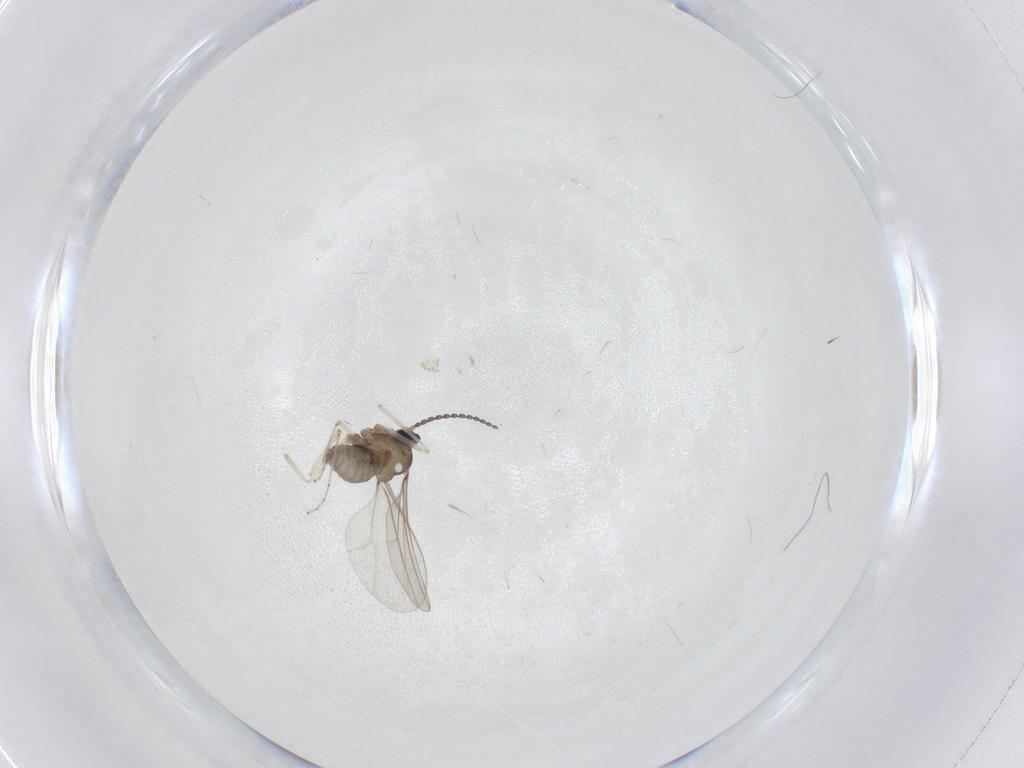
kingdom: Animalia
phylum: Arthropoda
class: Insecta
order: Diptera
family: Cecidomyiidae
